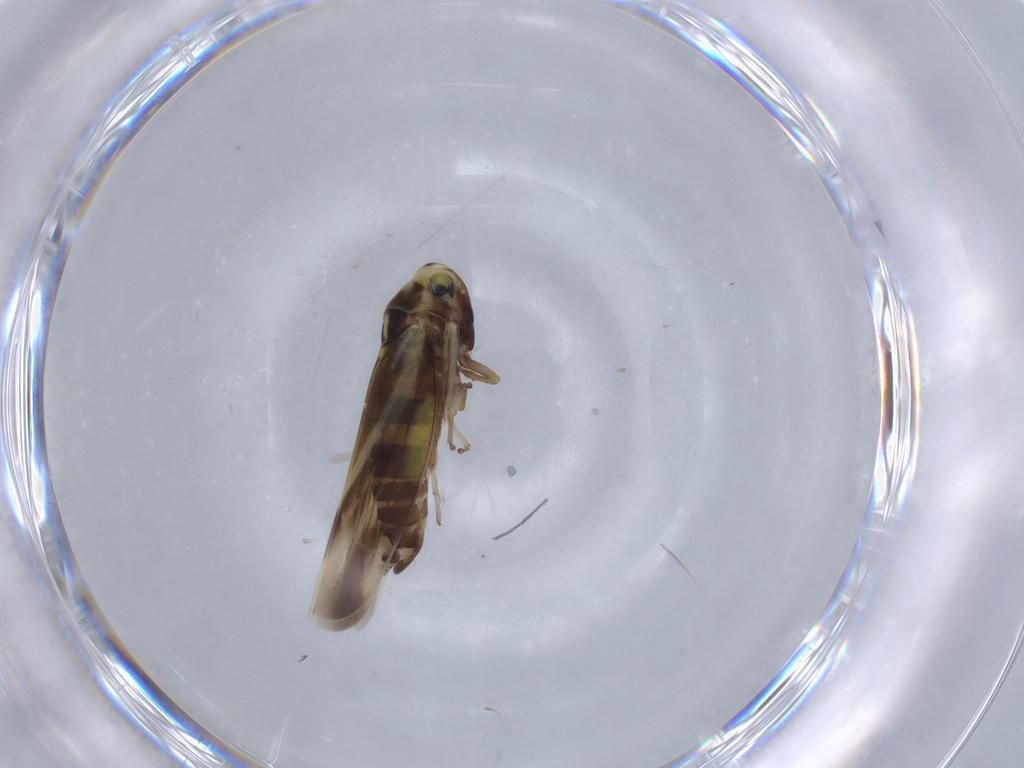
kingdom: Animalia
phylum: Arthropoda
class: Insecta
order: Hemiptera
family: Cicadellidae
